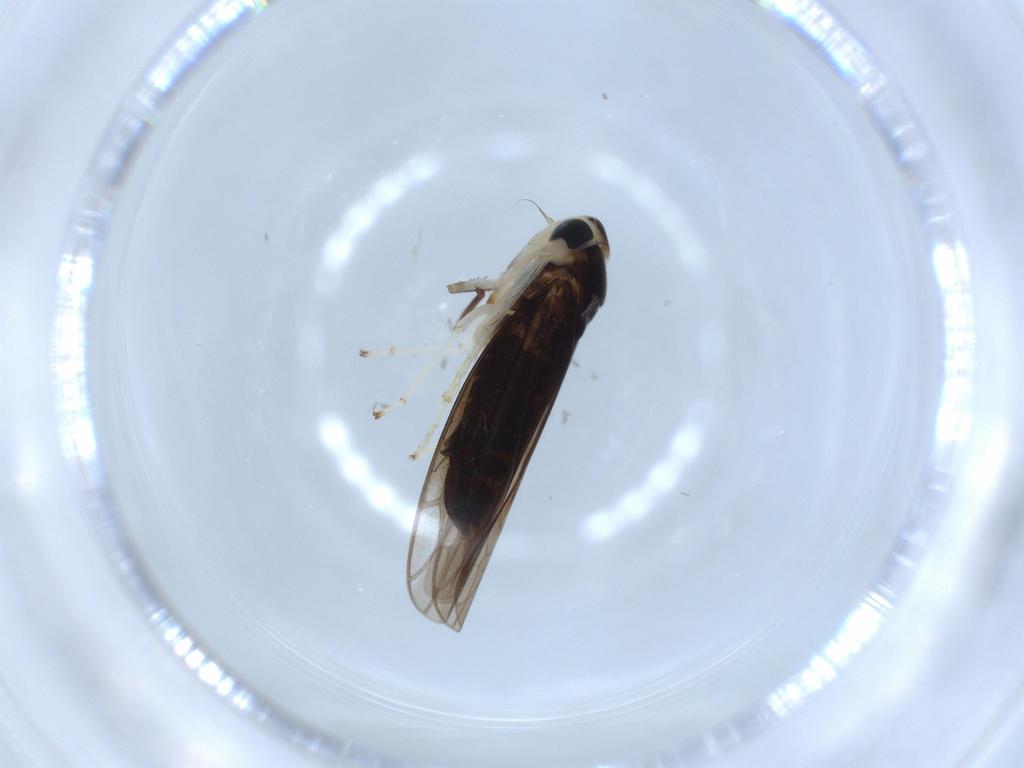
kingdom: Animalia
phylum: Arthropoda
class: Insecta
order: Hemiptera
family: Cicadellidae
